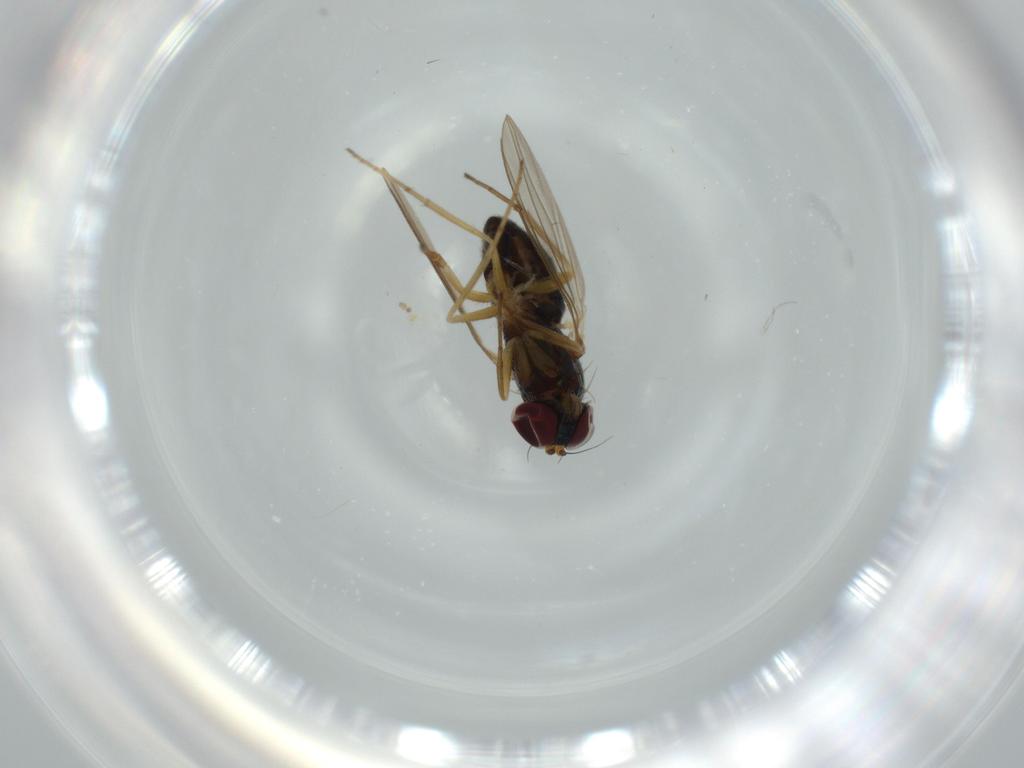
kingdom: Animalia
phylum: Arthropoda
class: Insecta
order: Diptera
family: Dolichopodidae
